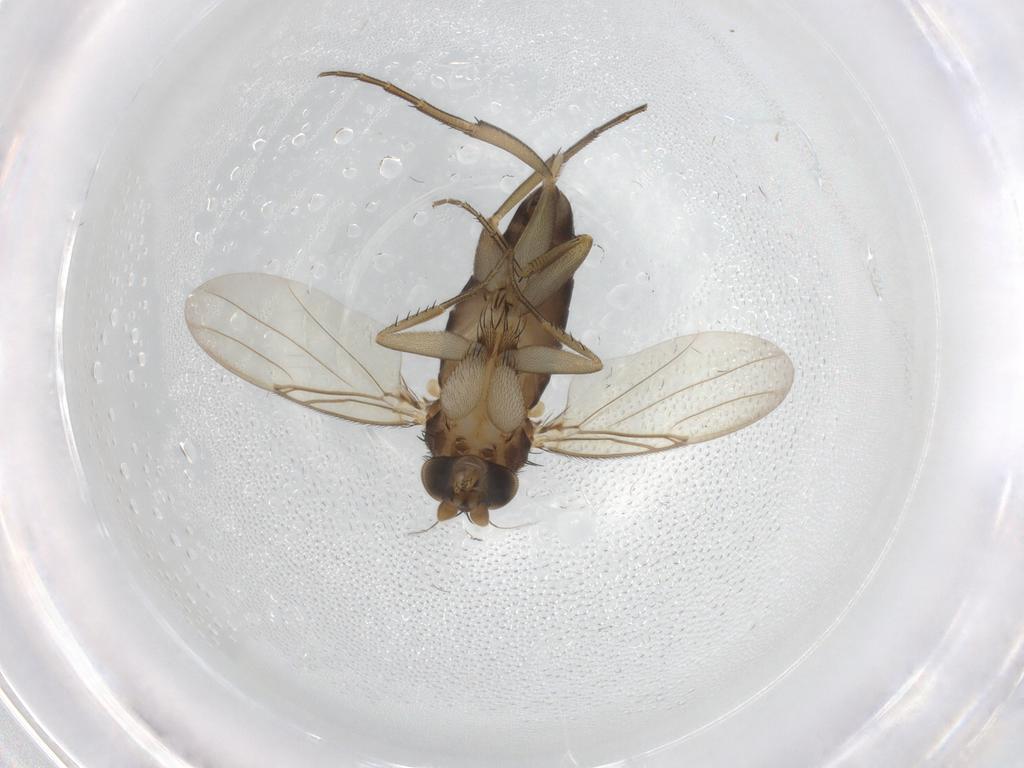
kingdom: Animalia
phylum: Arthropoda
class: Insecta
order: Diptera
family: Phoridae
